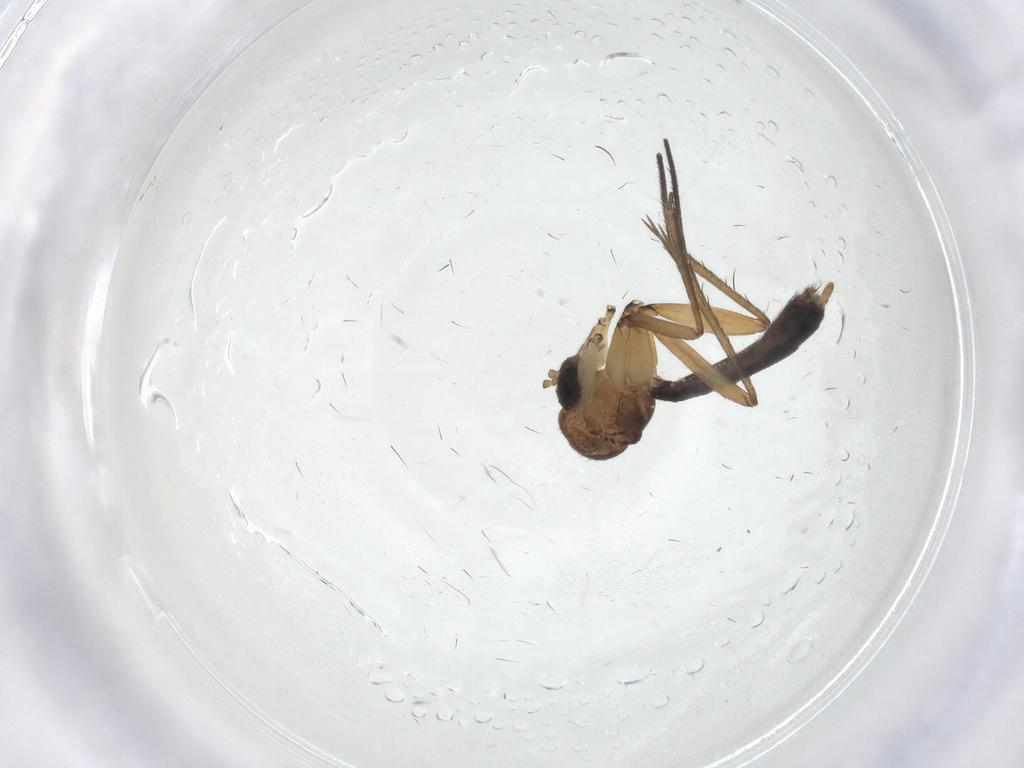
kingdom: Animalia
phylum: Arthropoda
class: Insecta
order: Diptera
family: Mycetophilidae
